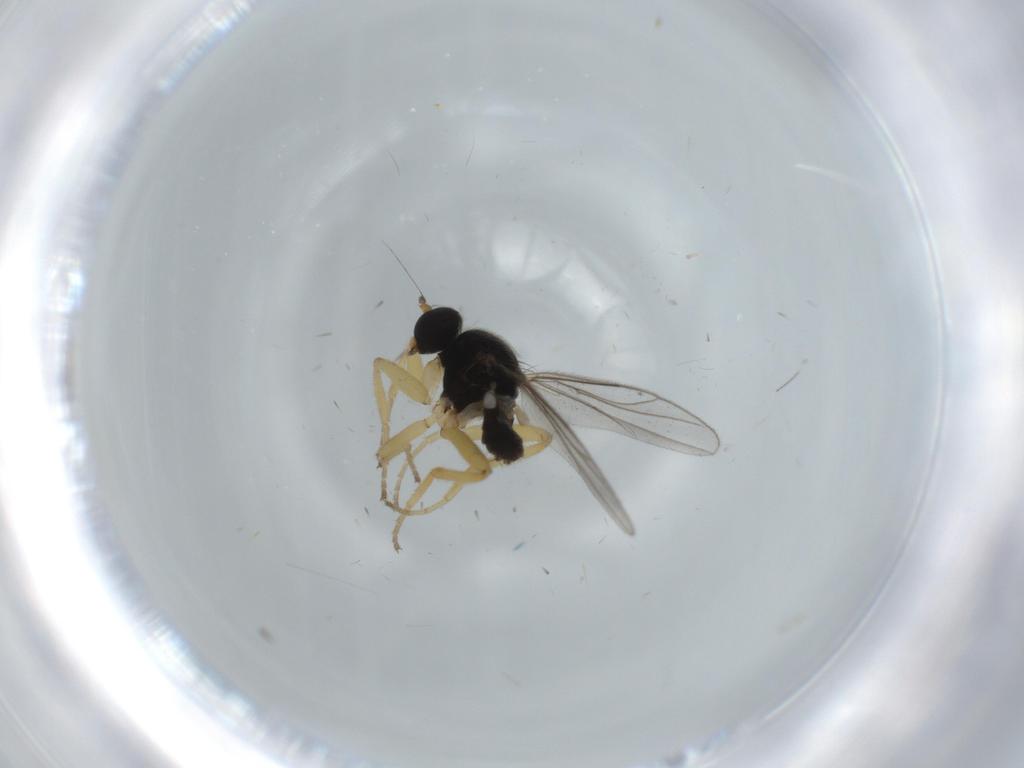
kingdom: Animalia
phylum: Arthropoda
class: Insecta
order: Diptera
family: Hybotidae
